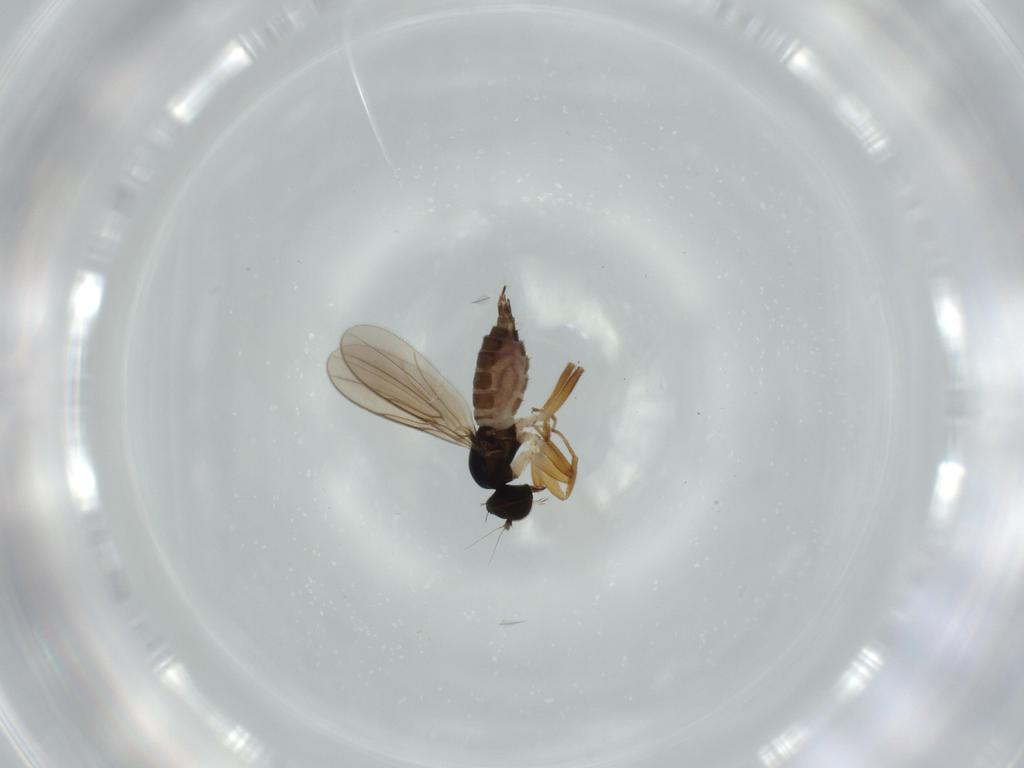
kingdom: Animalia
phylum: Arthropoda
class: Insecta
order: Diptera
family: Hybotidae
